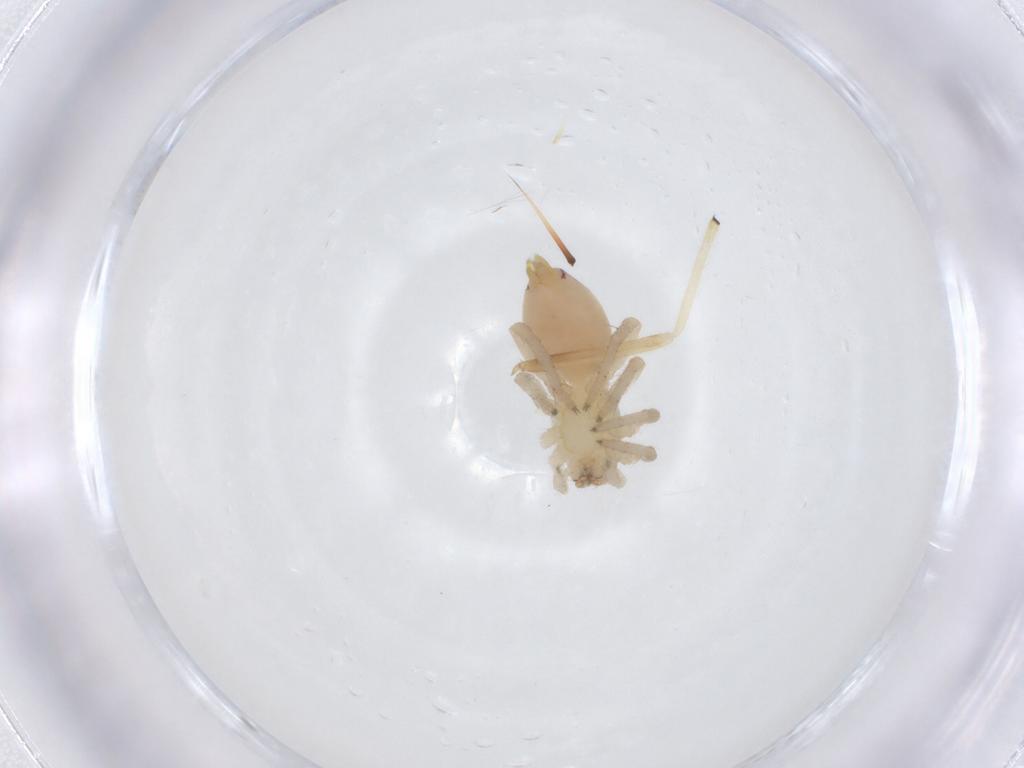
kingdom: Animalia
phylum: Arthropoda
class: Arachnida
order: Araneae
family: Clubionidae
